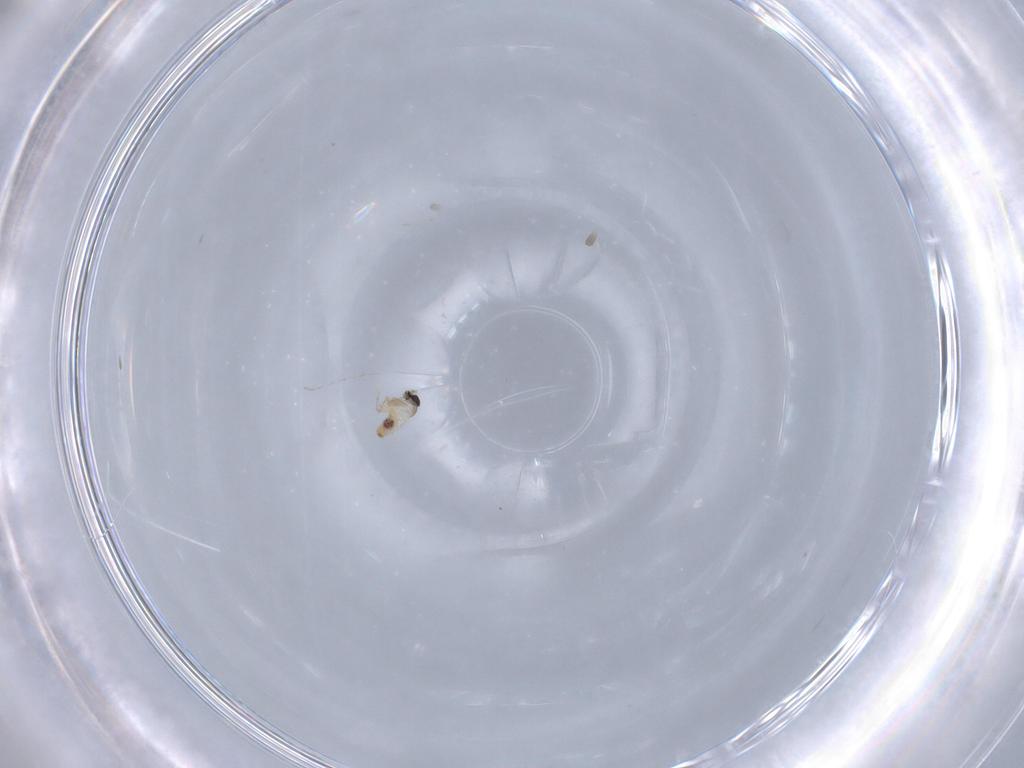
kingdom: Animalia
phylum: Arthropoda
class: Insecta
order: Diptera
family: Cecidomyiidae
